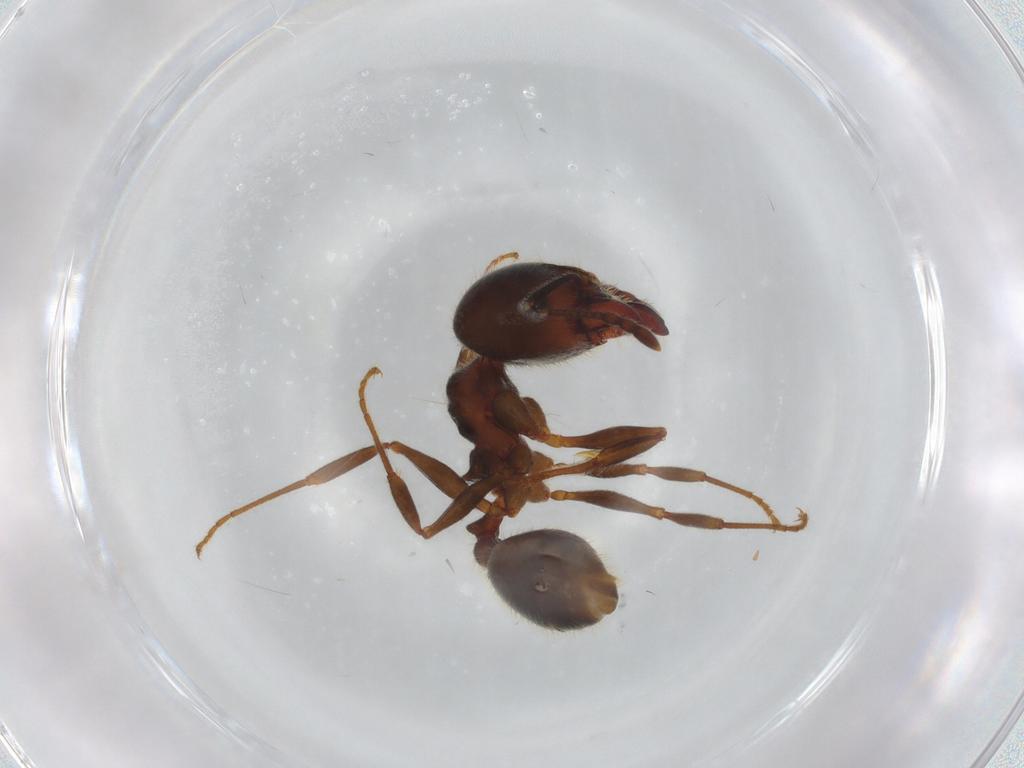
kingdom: Animalia
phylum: Arthropoda
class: Insecta
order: Hymenoptera
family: Formicidae
